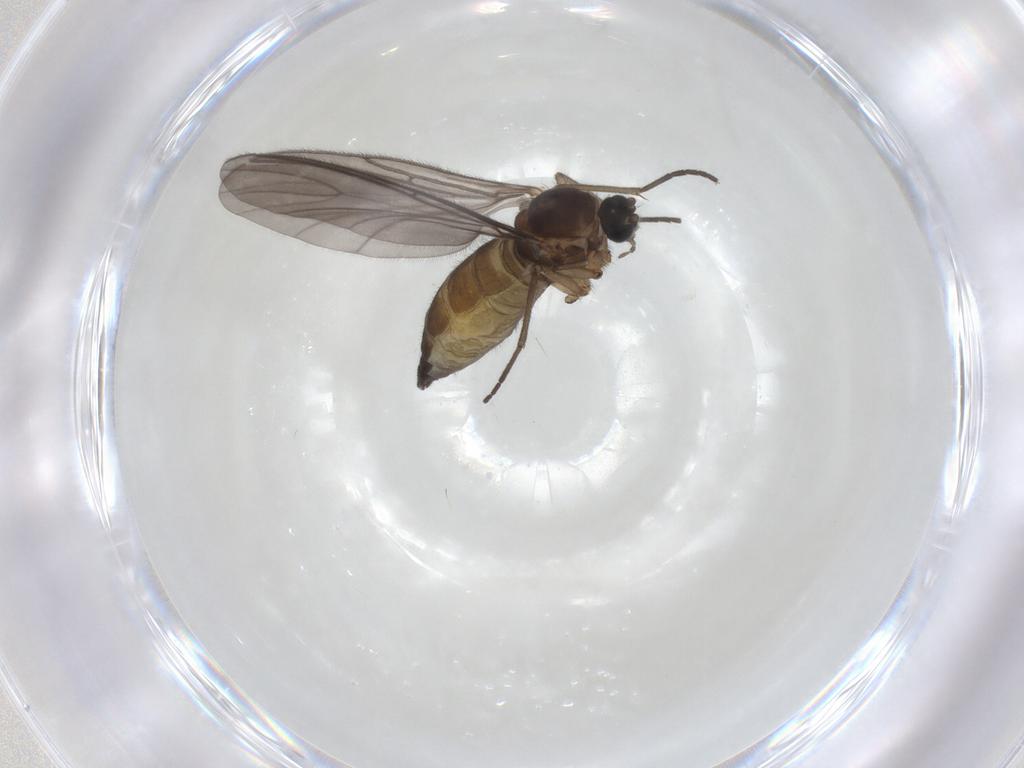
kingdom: Animalia
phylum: Arthropoda
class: Insecta
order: Diptera
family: Sciaridae
